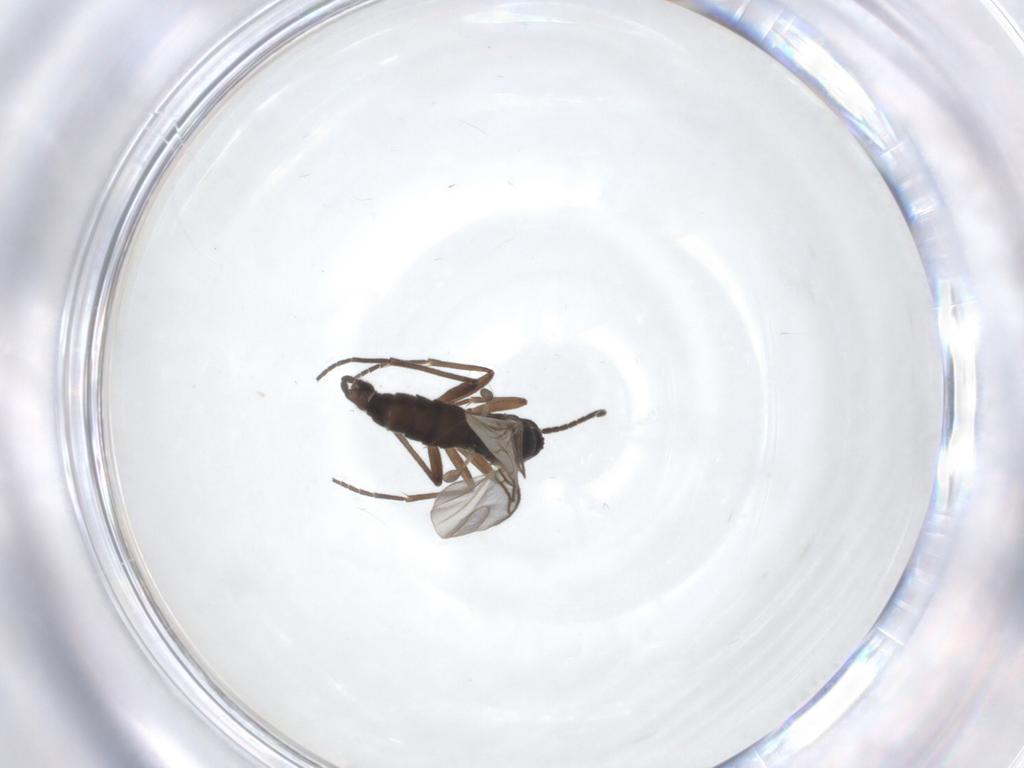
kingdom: Animalia
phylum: Arthropoda
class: Insecta
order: Diptera
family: Sciaridae
